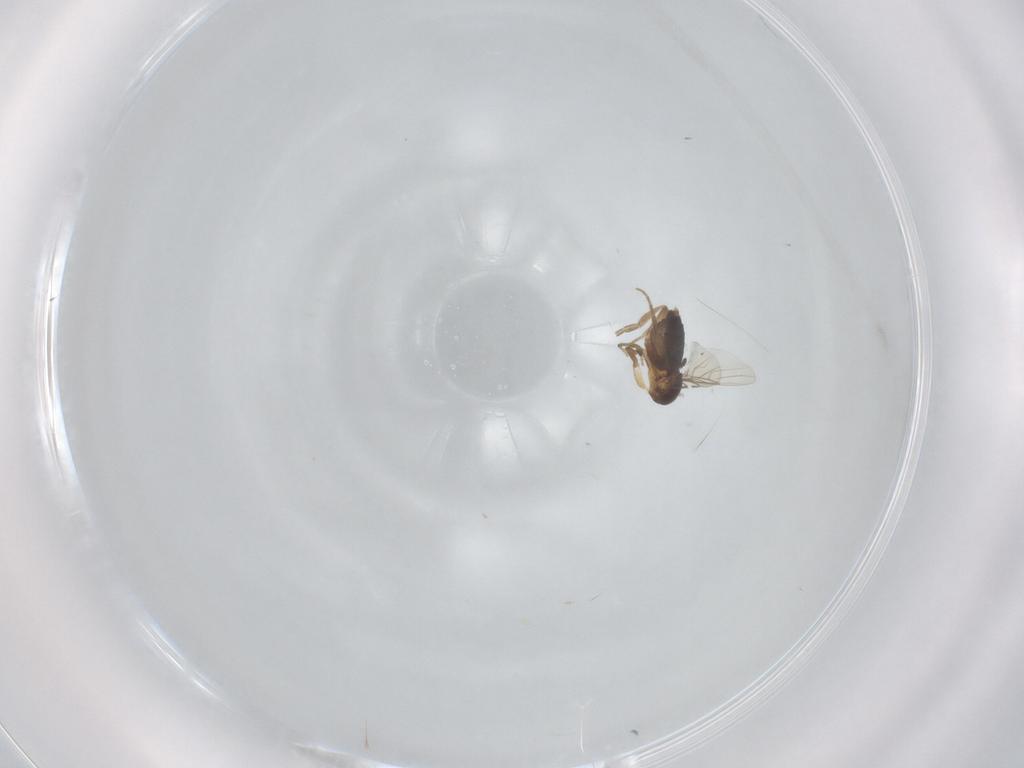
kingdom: Animalia
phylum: Arthropoda
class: Insecta
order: Diptera
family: Phoridae
